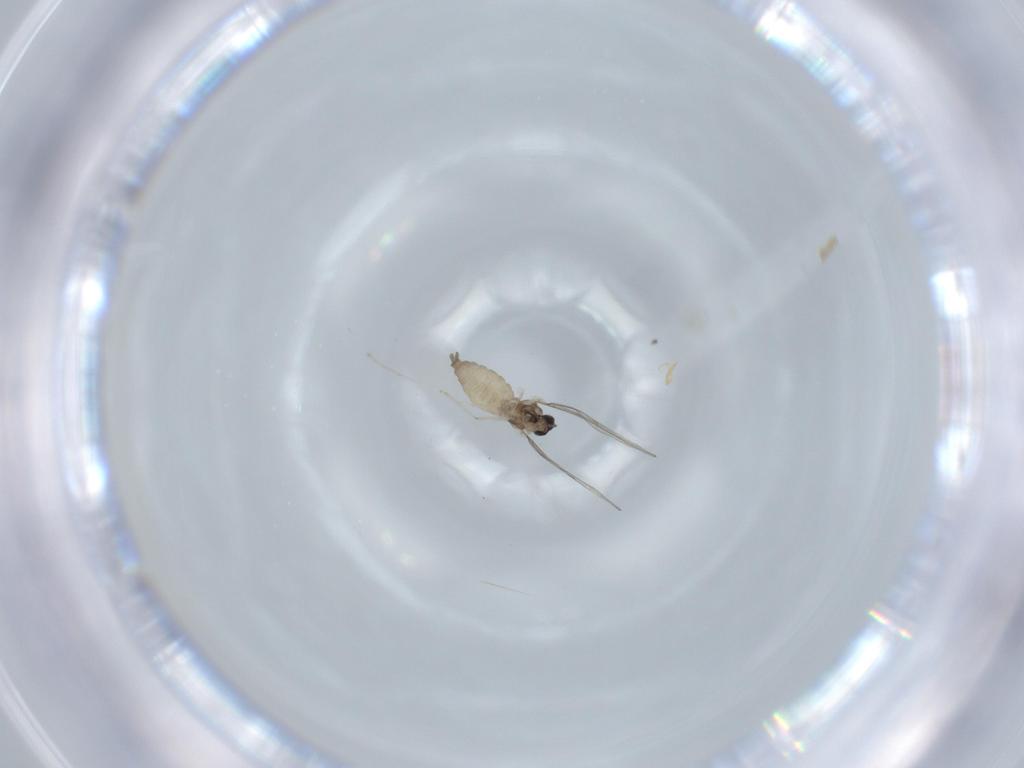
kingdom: Animalia
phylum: Arthropoda
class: Insecta
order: Diptera
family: Cecidomyiidae
